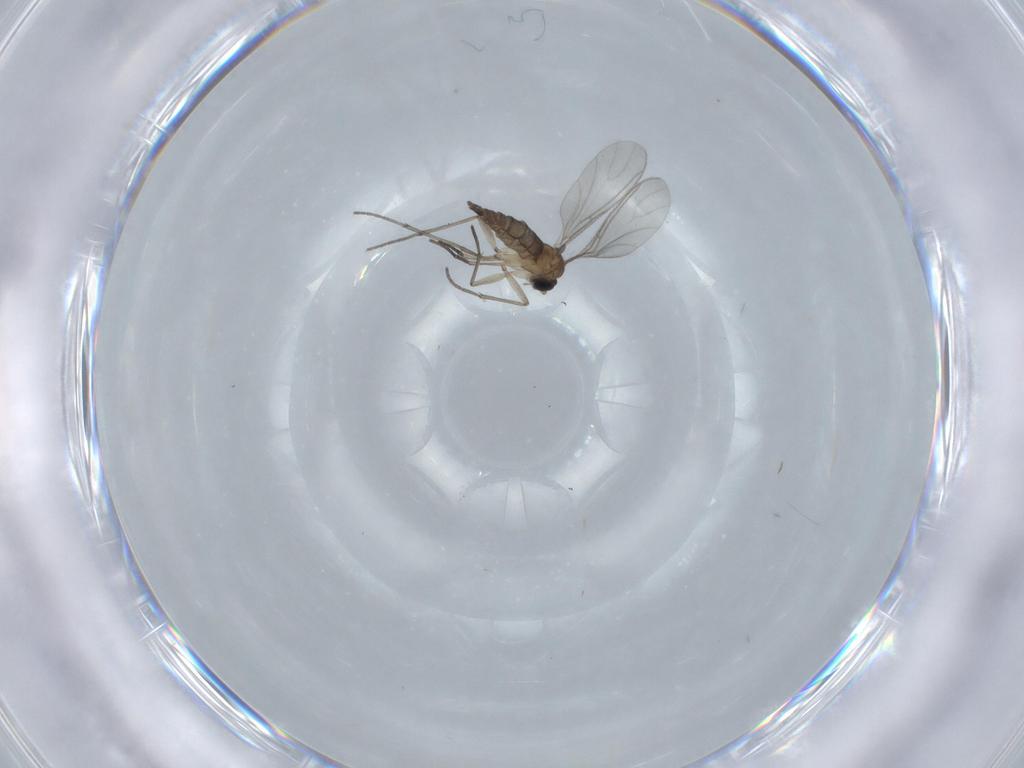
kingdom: Animalia
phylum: Arthropoda
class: Insecta
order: Diptera
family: Sciaridae
